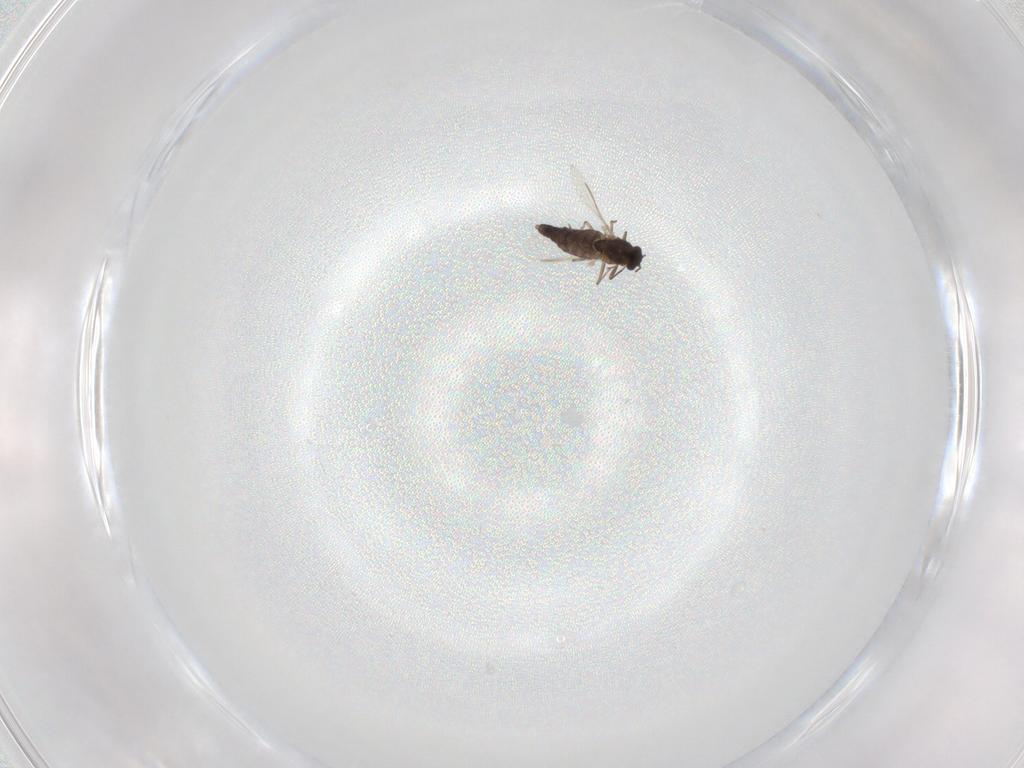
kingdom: Animalia
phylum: Arthropoda
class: Insecta
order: Diptera
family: Chironomidae
